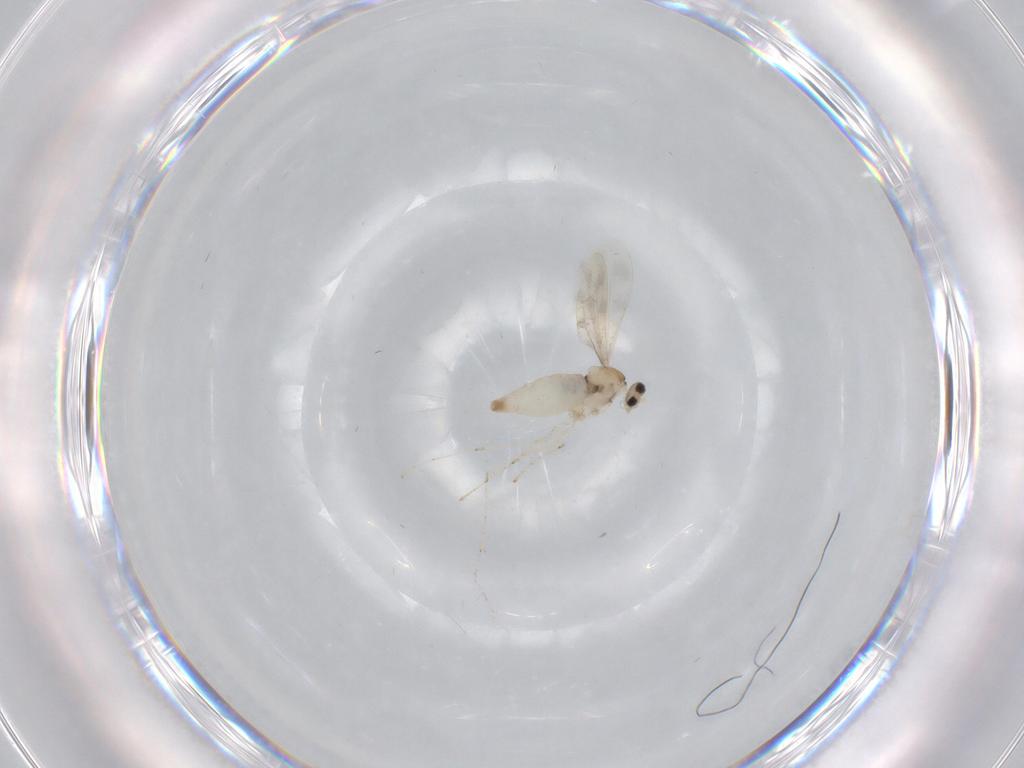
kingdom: Animalia
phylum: Arthropoda
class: Insecta
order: Diptera
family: Cecidomyiidae
